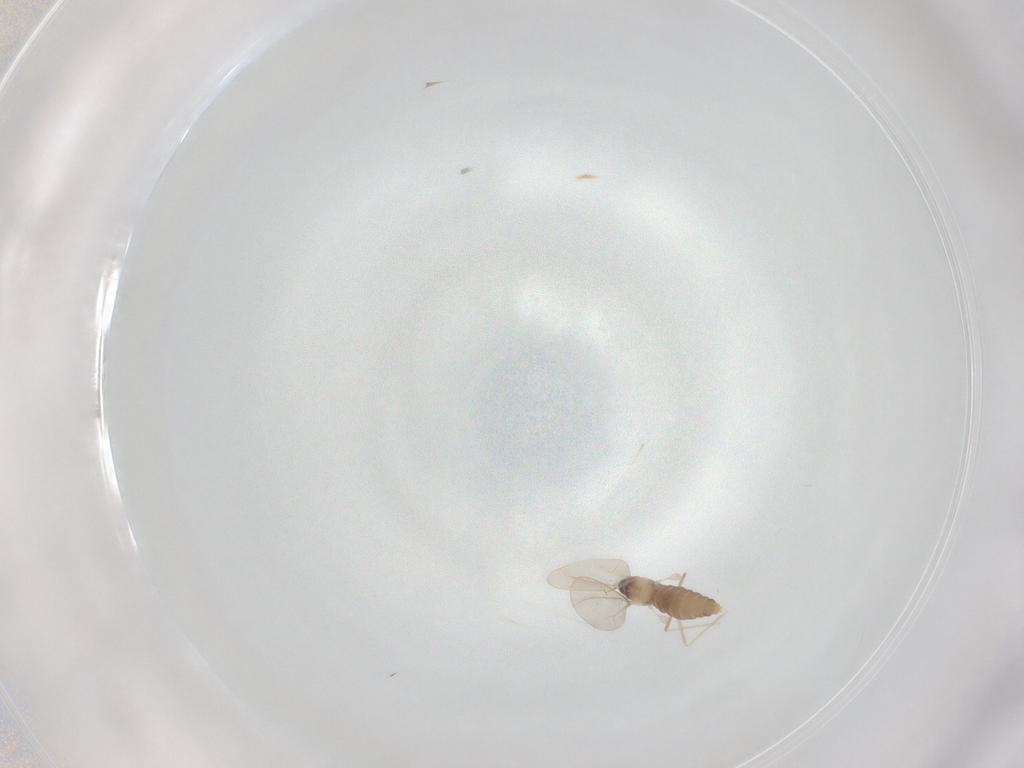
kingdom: Animalia
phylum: Arthropoda
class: Insecta
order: Diptera
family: Cecidomyiidae
